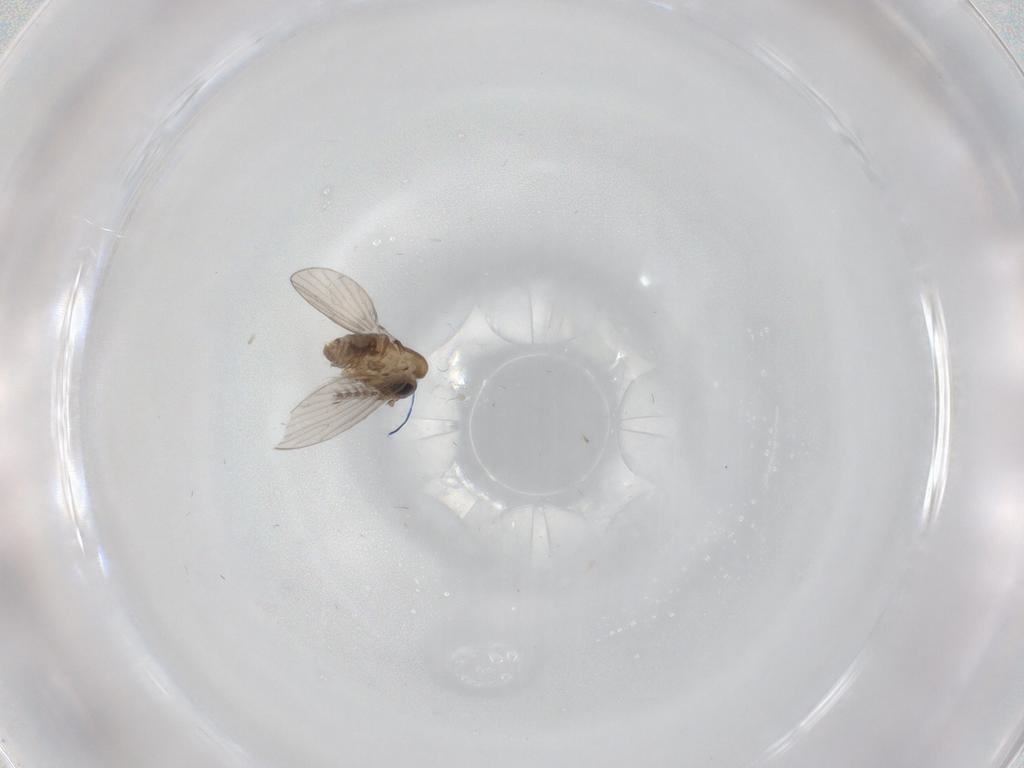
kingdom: Animalia
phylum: Arthropoda
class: Insecta
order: Diptera
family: Psychodidae
